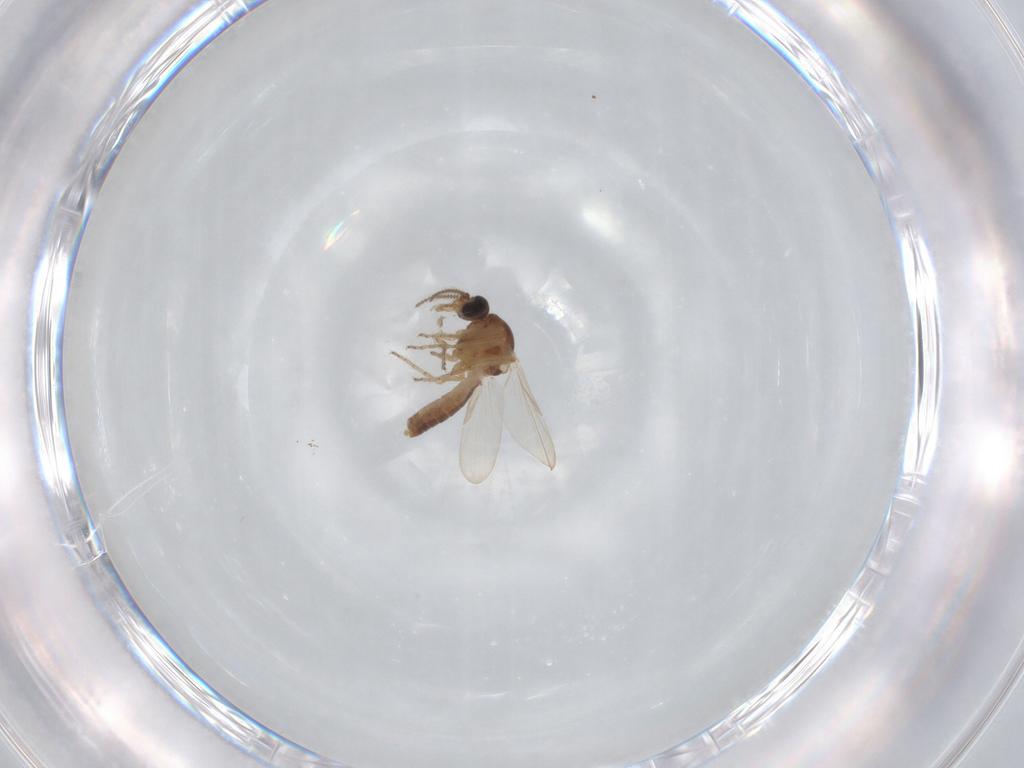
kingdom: Animalia
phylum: Arthropoda
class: Insecta
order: Diptera
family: Ceratopogonidae
